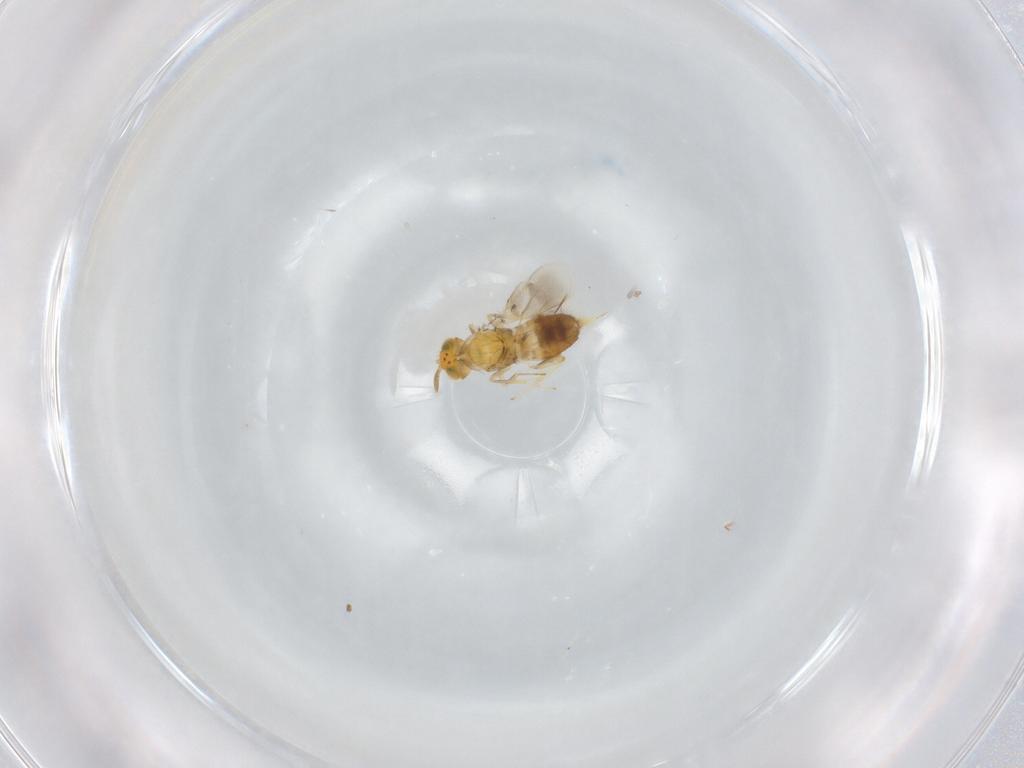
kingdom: Animalia
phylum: Arthropoda
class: Insecta
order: Hymenoptera
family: Aphelinidae
